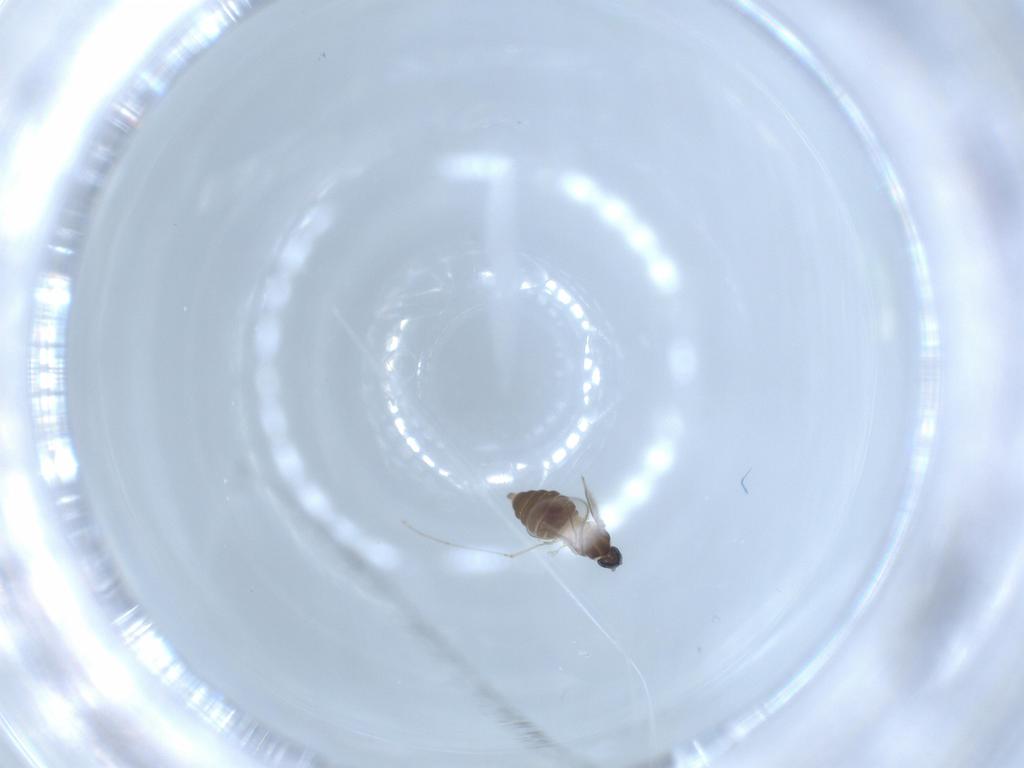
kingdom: Animalia
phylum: Arthropoda
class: Insecta
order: Diptera
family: Cecidomyiidae
